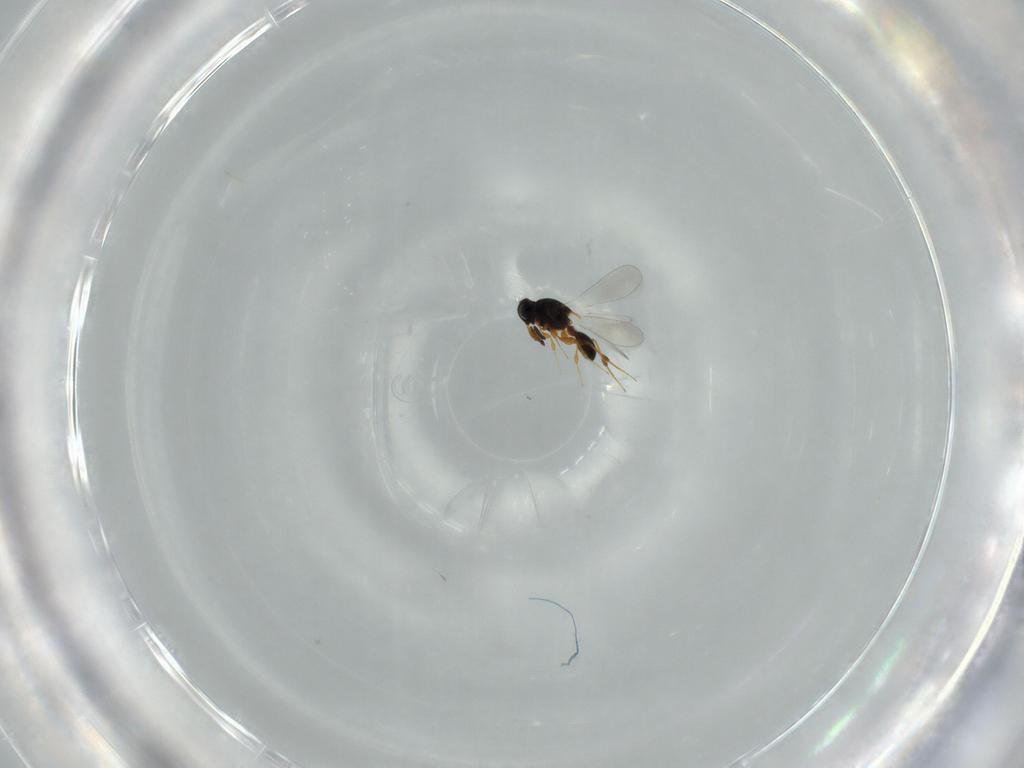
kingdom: Animalia
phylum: Arthropoda
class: Insecta
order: Hymenoptera
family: Platygastridae
